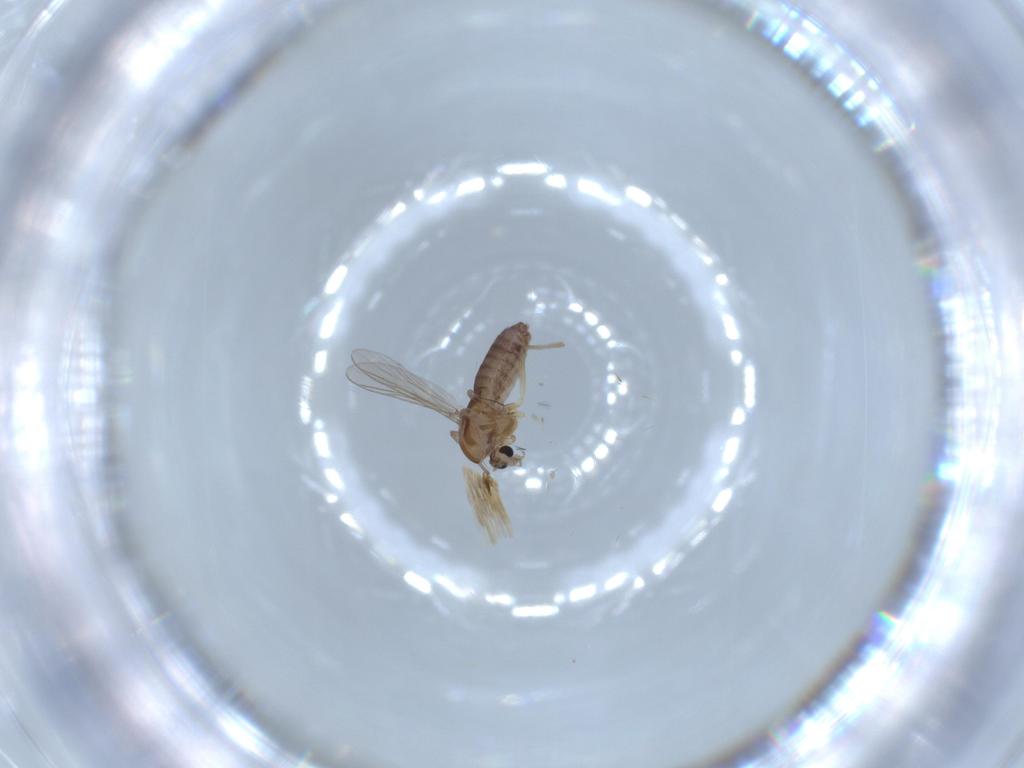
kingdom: Animalia
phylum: Arthropoda
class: Insecta
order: Diptera
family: Chironomidae
